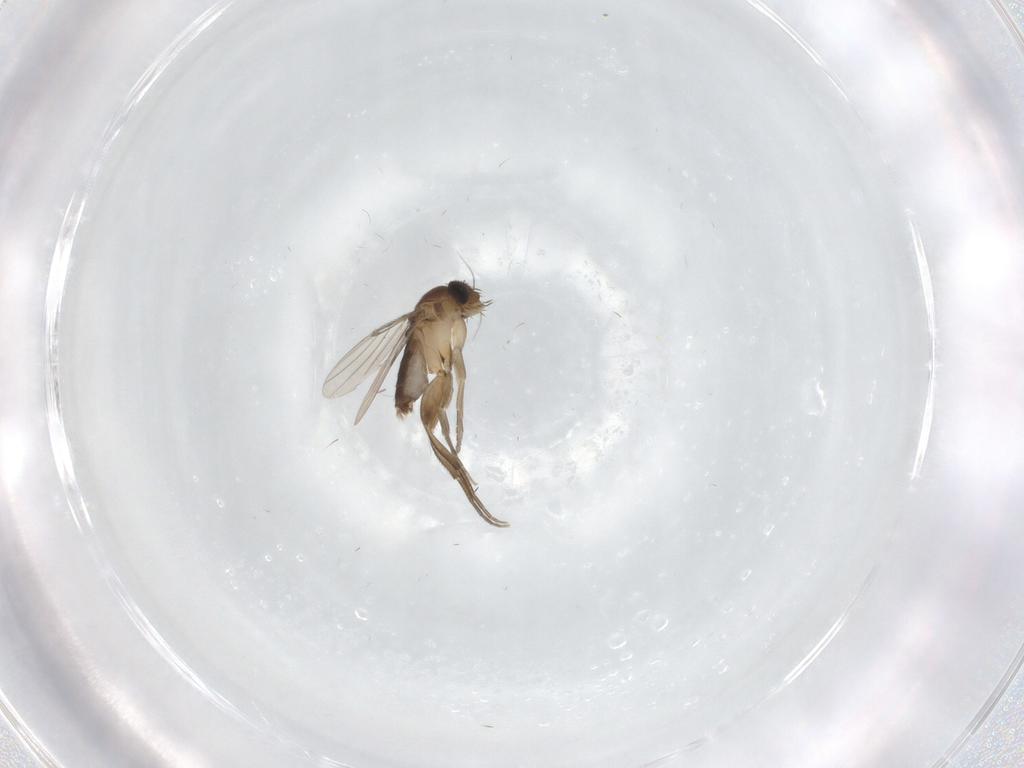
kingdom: Animalia
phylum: Arthropoda
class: Insecta
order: Diptera
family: Phoridae
